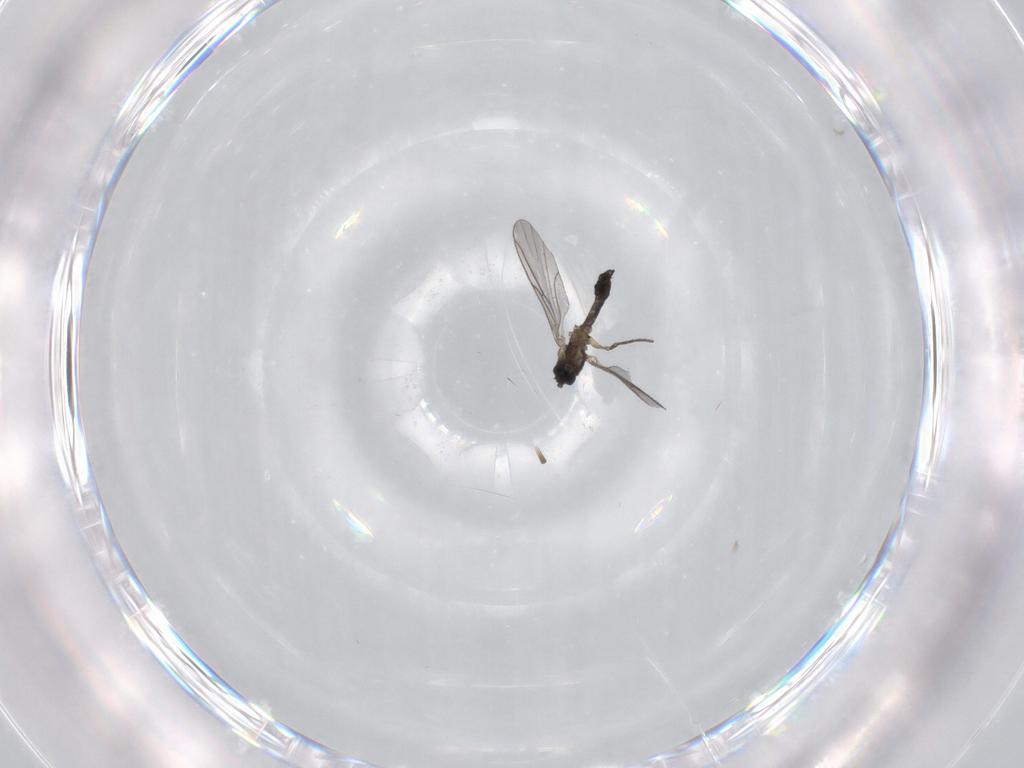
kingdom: Animalia
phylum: Arthropoda
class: Insecta
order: Diptera
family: Sciaridae
